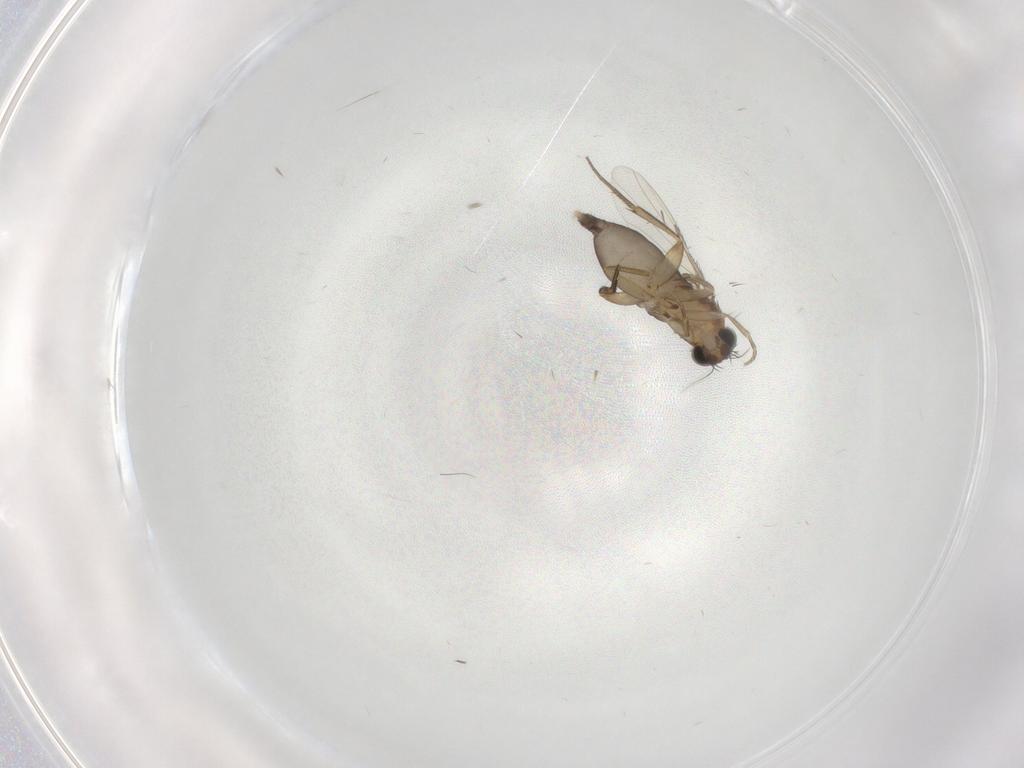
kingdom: Animalia
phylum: Arthropoda
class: Insecta
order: Diptera
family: Phoridae
